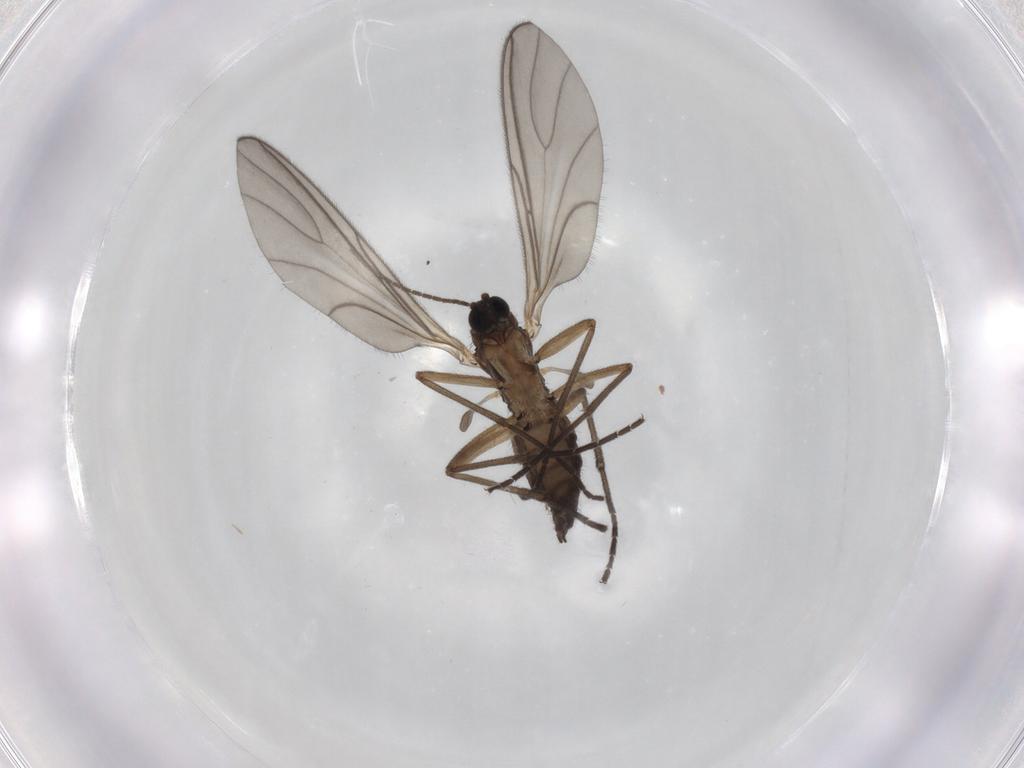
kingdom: Animalia
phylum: Arthropoda
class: Insecta
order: Diptera
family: Sciaridae
